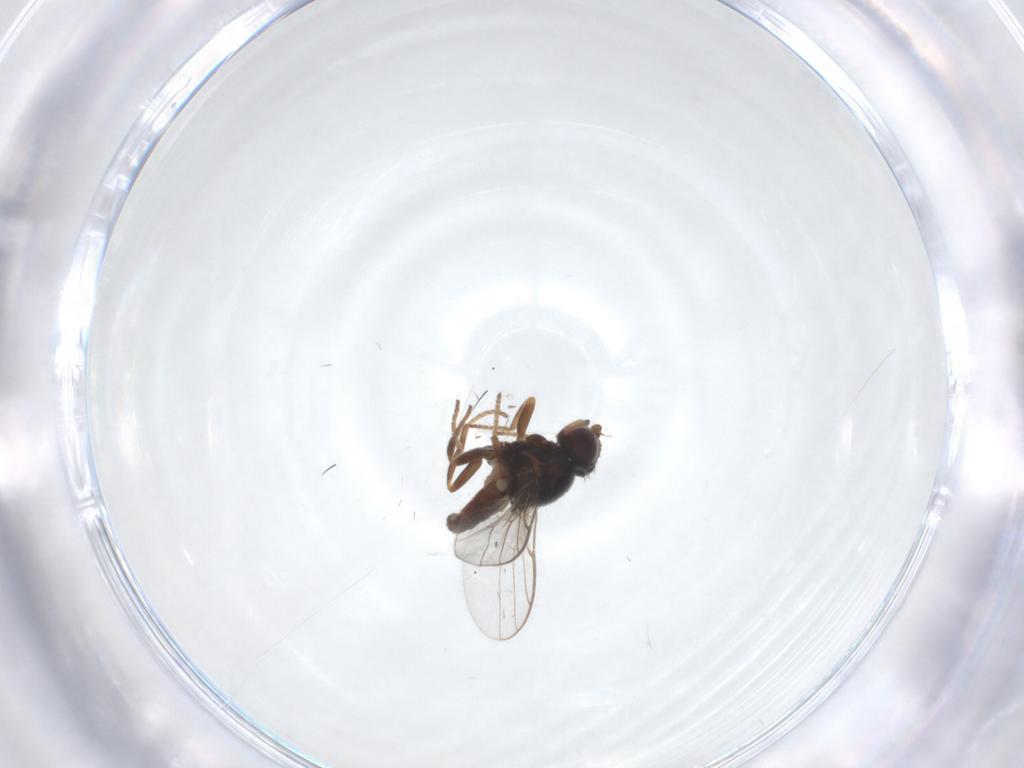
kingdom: Animalia
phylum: Arthropoda
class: Insecta
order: Diptera
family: Chloropidae
